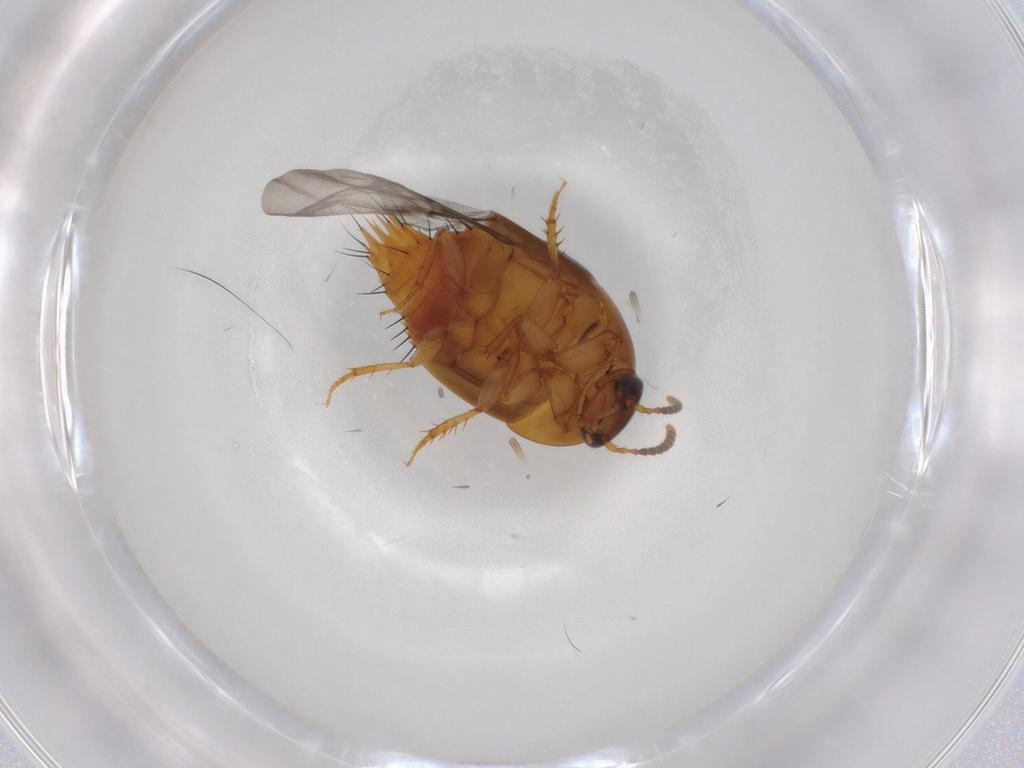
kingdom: Animalia
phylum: Arthropoda
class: Insecta
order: Coleoptera
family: Staphylinidae
